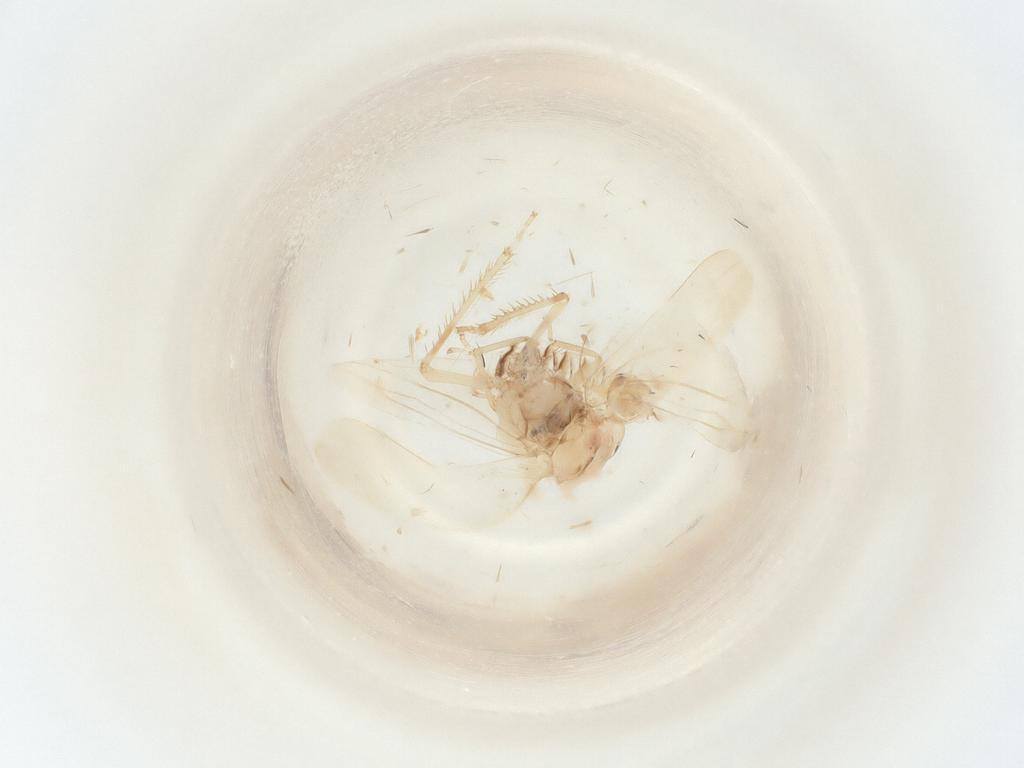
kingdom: Animalia
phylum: Arthropoda
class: Insecta
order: Hemiptera
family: Cicadellidae
